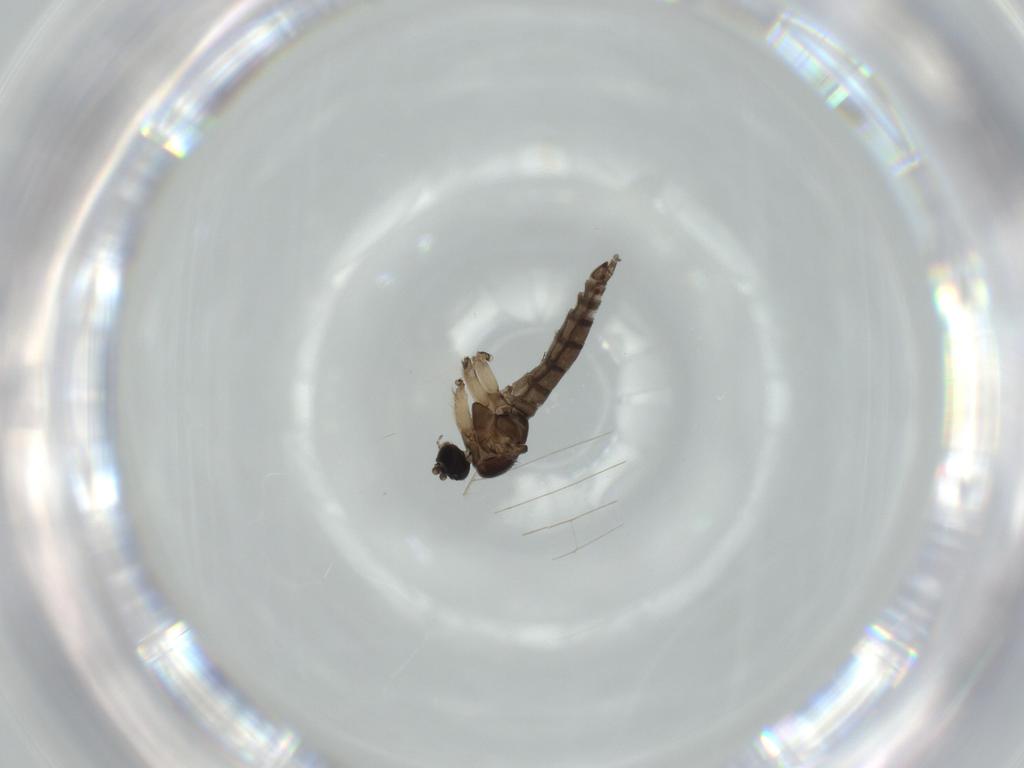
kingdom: Animalia
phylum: Arthropoda
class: Insecta
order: Diptera
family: Sciaridae
